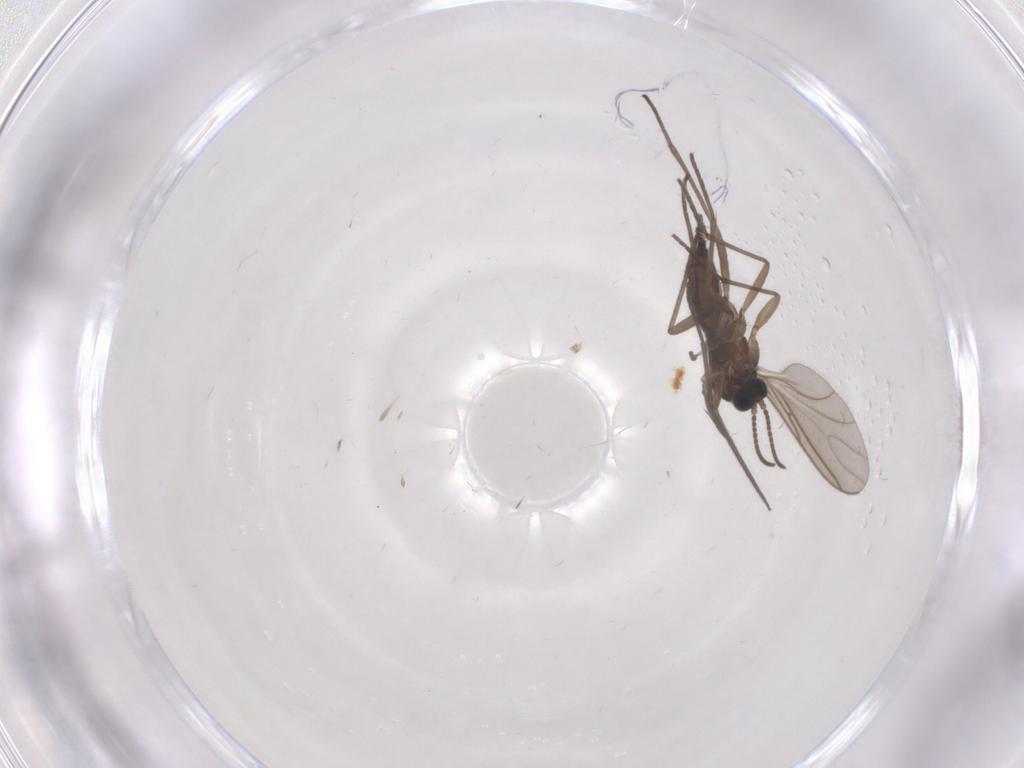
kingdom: Animalia
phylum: Arthropoda
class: Insecta
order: Diptera
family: Sciaridae
